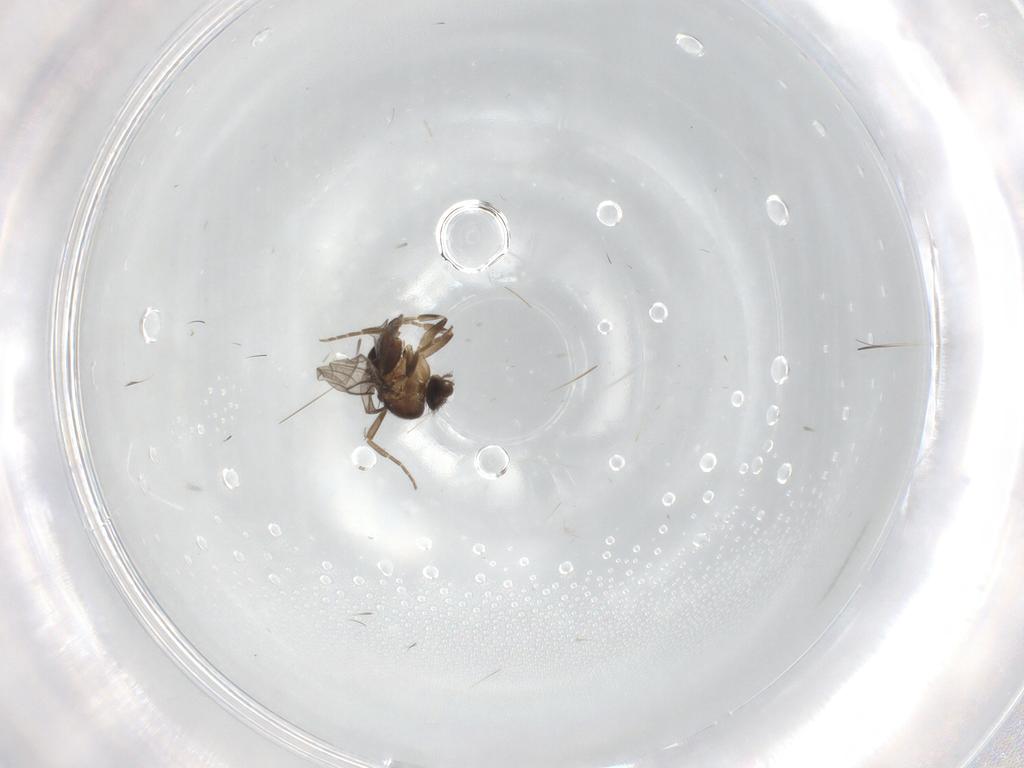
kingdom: Animalia
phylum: Arthropoda
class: Insecta
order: Diptera
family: Sciaridae
